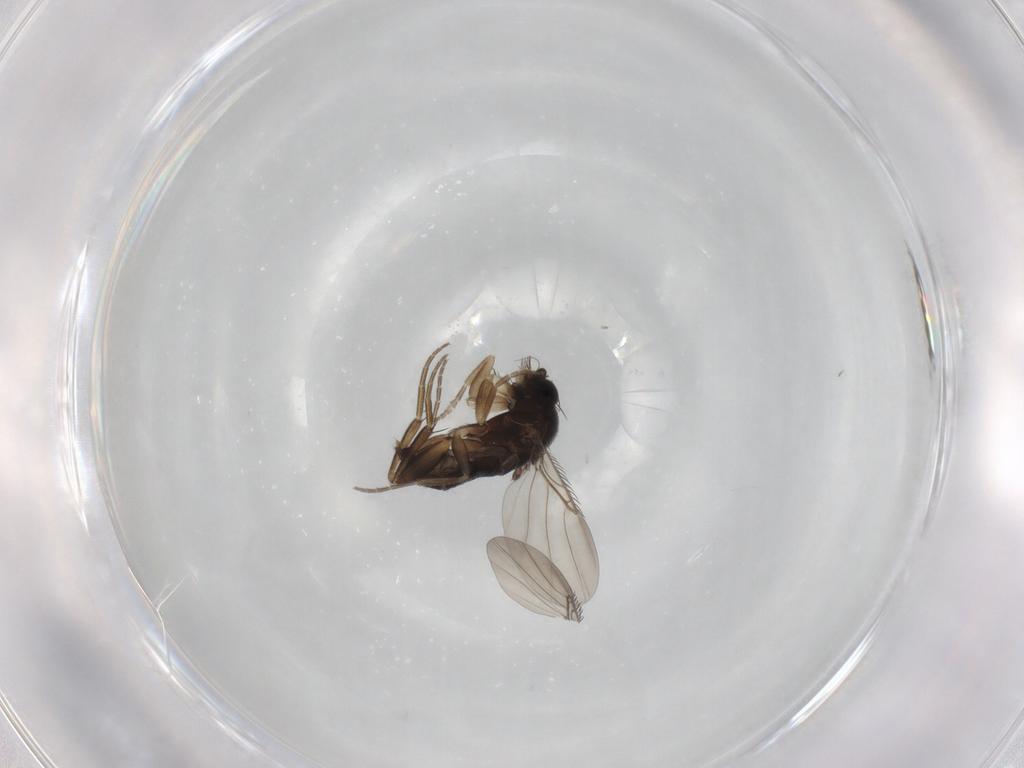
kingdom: Animalia
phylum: Arthropoda
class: Insecta
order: Diptera
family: Phoridae
